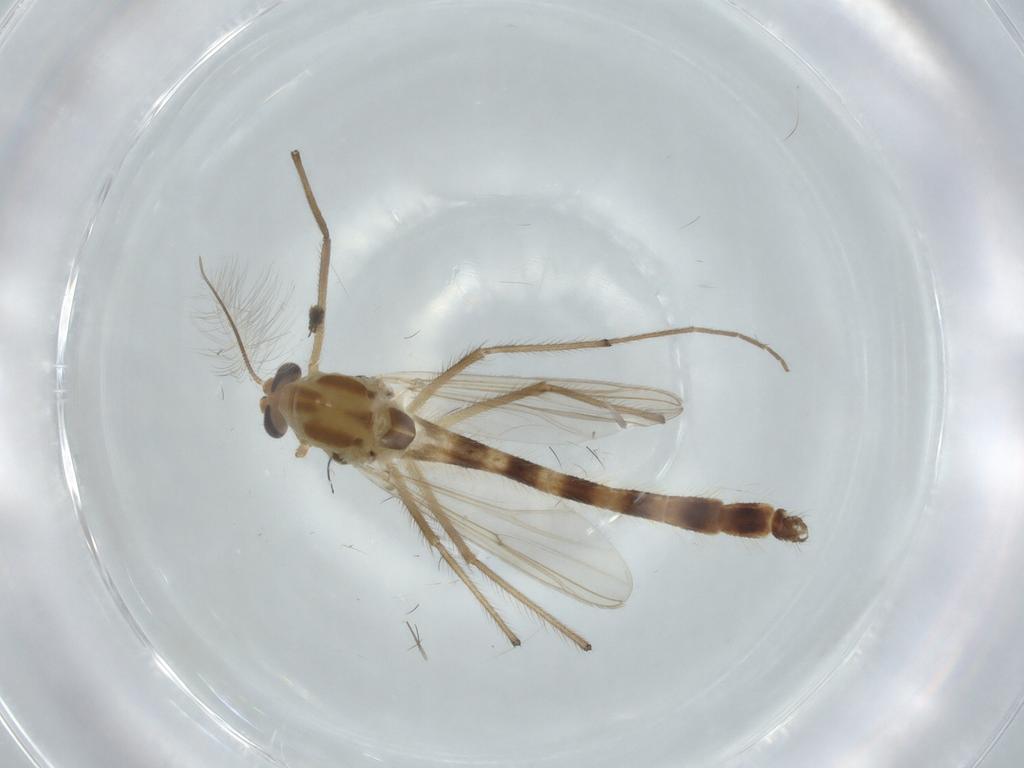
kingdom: Animalia
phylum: Arthropoda
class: Insecta
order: Diptera
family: Chironomidae
